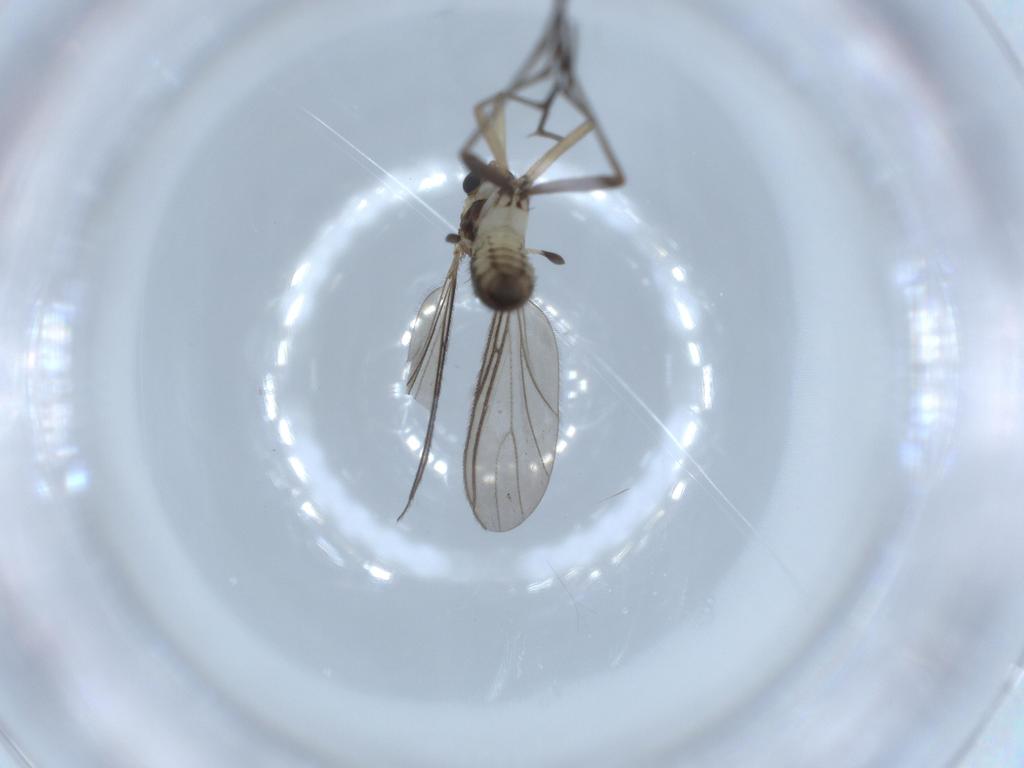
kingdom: Animalia
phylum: Arthropoda
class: Insecta
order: Diptera
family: Sciaridae
